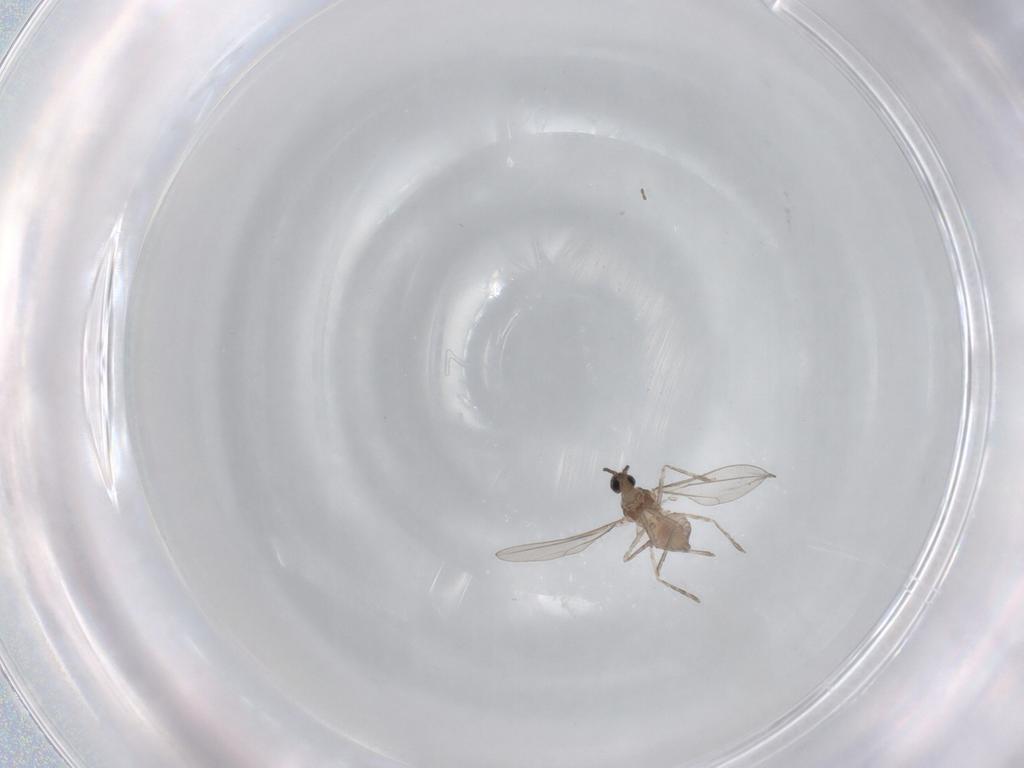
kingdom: Animalia
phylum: Arthropoda
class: Insecta
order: Diptera
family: Cecidomyiidae
